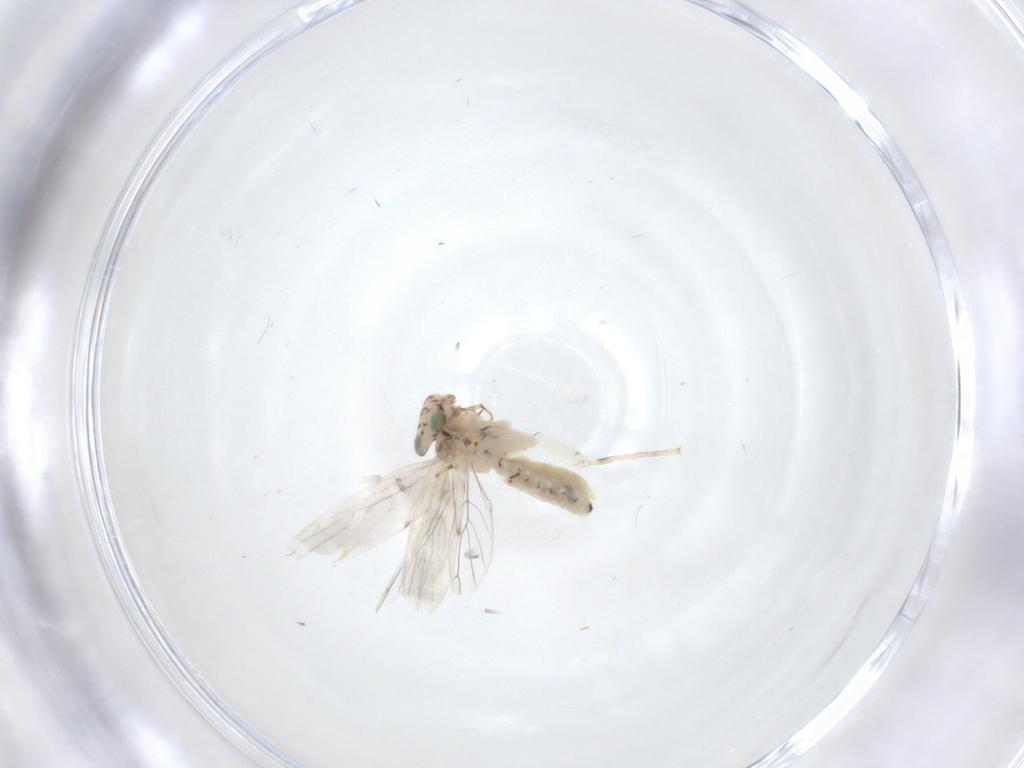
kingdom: Animalia
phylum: Arthropoda
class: Insecta
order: Psocodea
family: Lepidopsocidae
